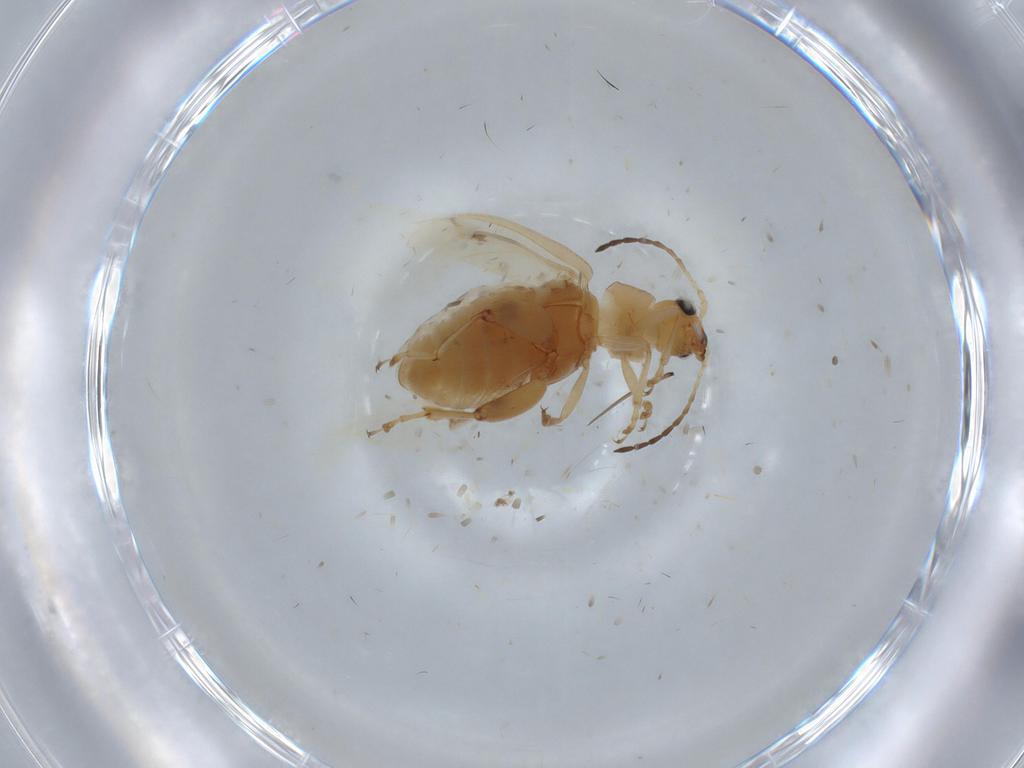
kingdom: Animalia
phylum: Arthropoda
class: Insecta
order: Coleoptera
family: Chrysomelidae
